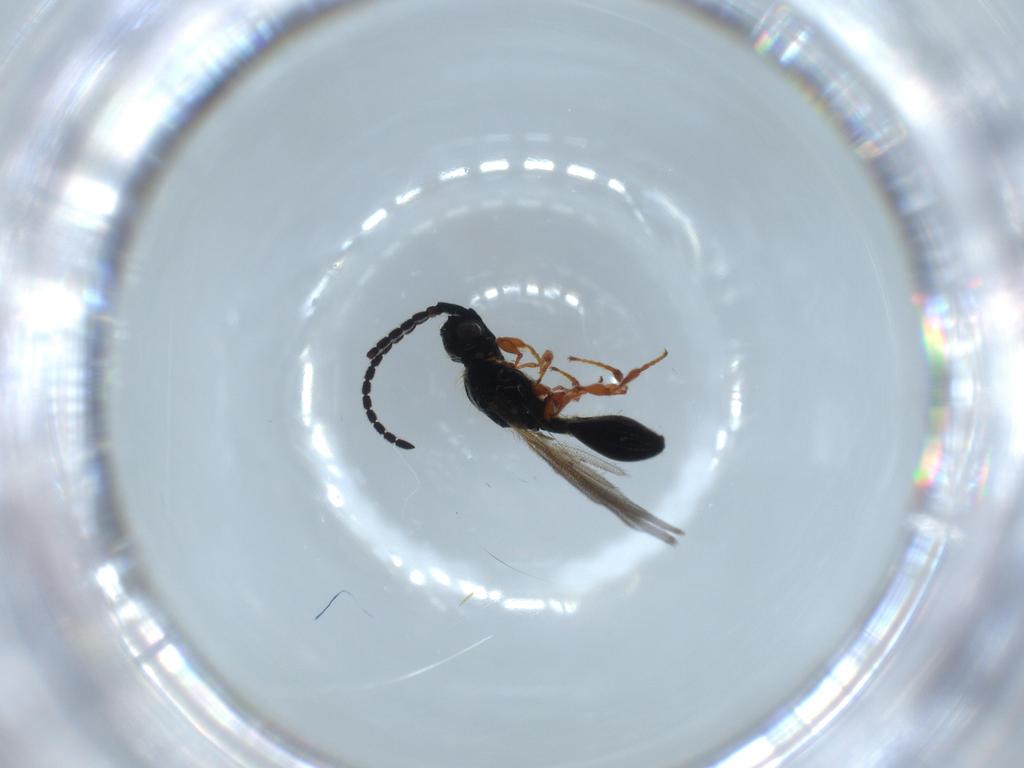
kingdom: Animalia
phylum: Arthropoda
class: Insecta
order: Hymenoptera
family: Diapriidae
